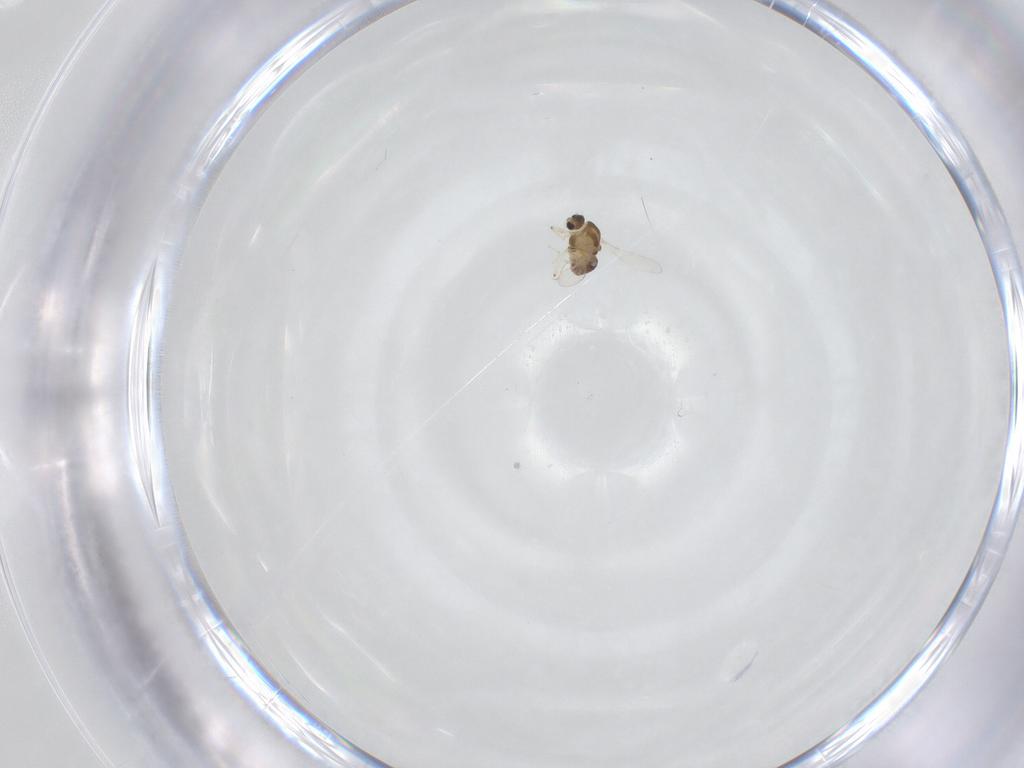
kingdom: Animalia
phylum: Arthropoda
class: Insecta
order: Diptera
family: Chironomidae
